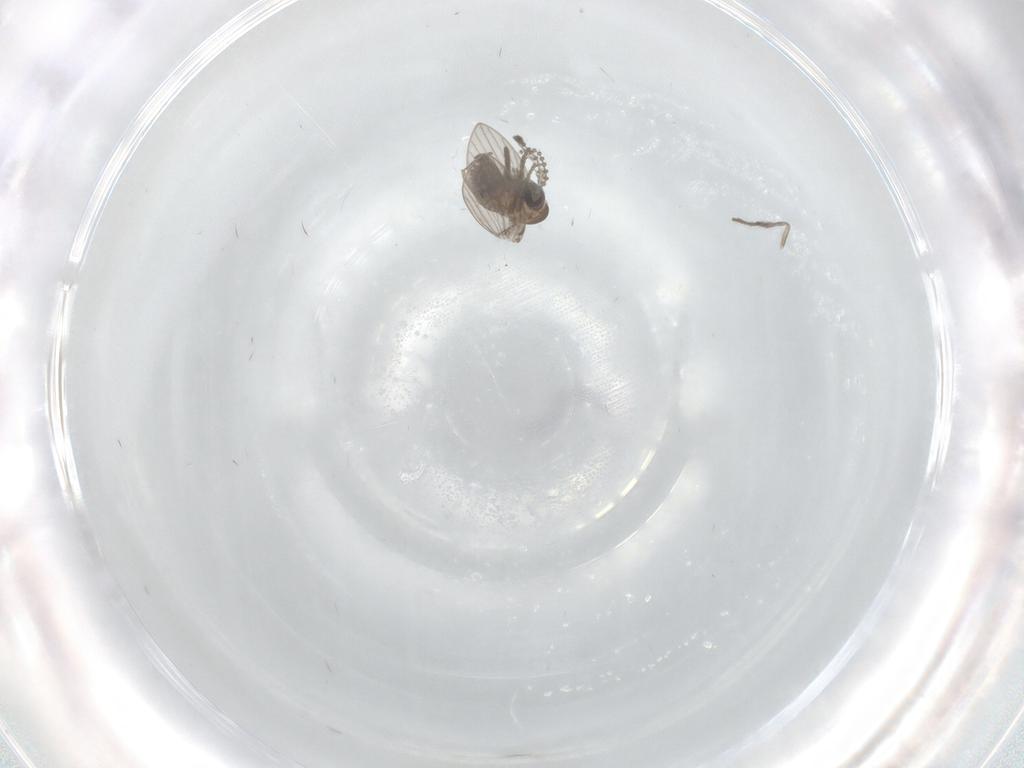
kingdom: Animalia
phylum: Arthropoda
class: Insecta
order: Diptera
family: Psychodidae
